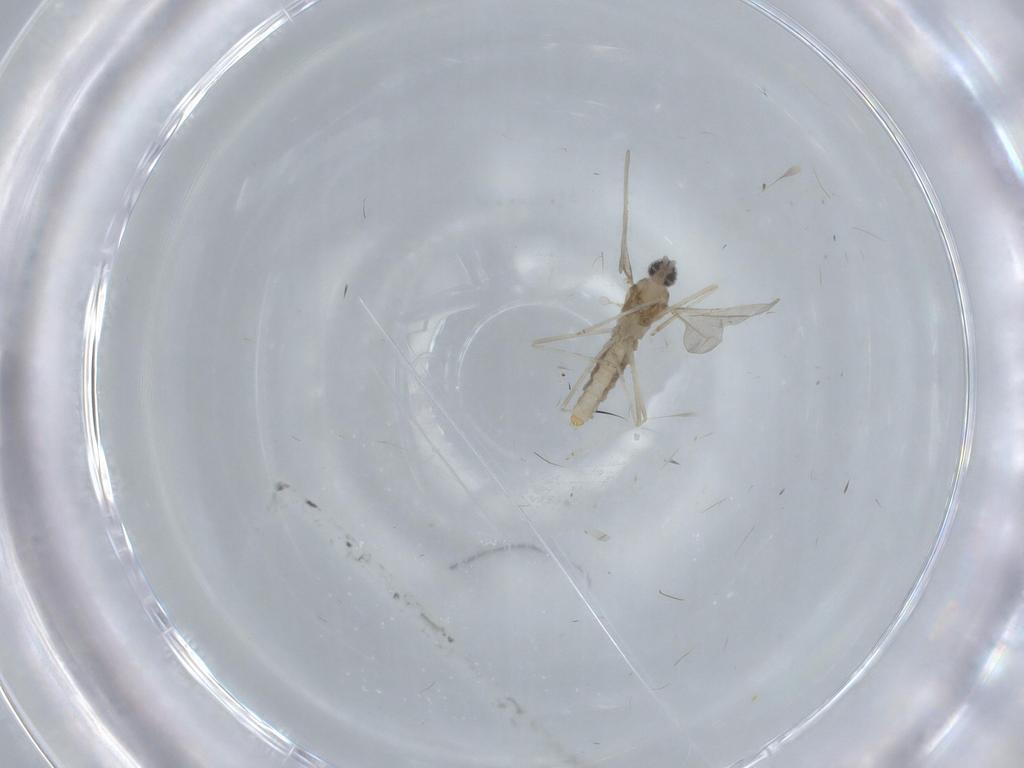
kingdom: Animalia
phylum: Arthropoda
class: Insecta
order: Diptera
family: Cecidomyiidae
